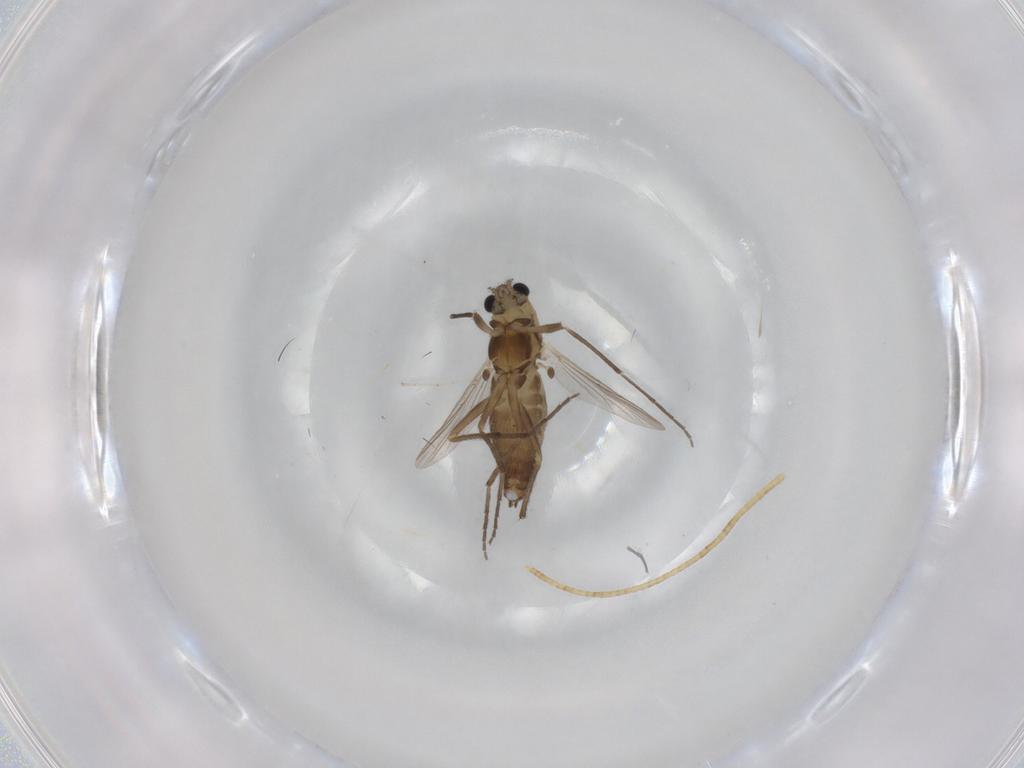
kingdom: Animalia
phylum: Arthropoda
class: Insecta
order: Diptera
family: Chironomidae
